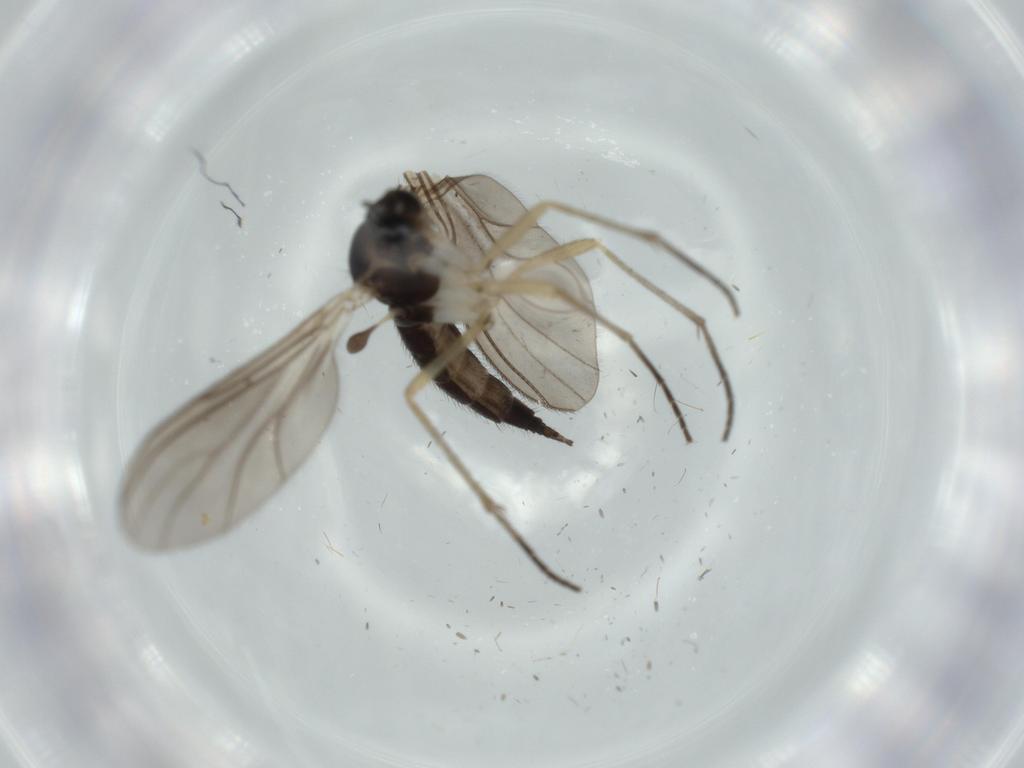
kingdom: Animalia
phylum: Arthropoda
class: Insecta
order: Diptera
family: Sciaridae
